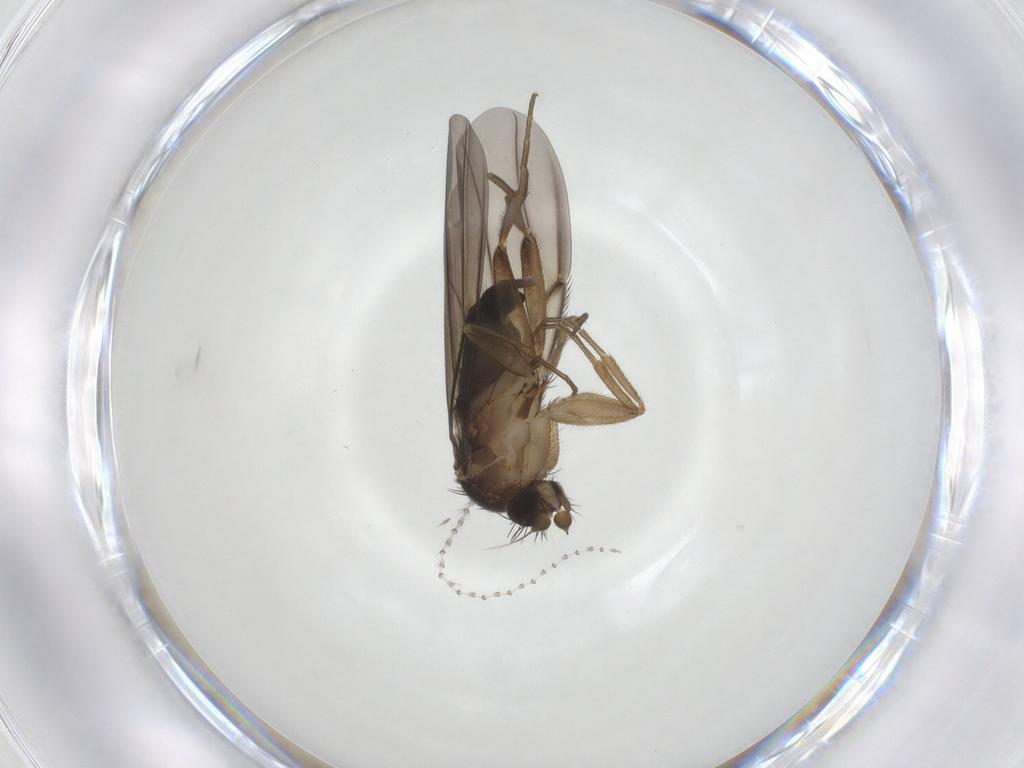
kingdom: Animalia
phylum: Arthropoda
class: Insecta
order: Diptera
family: Phoridae
